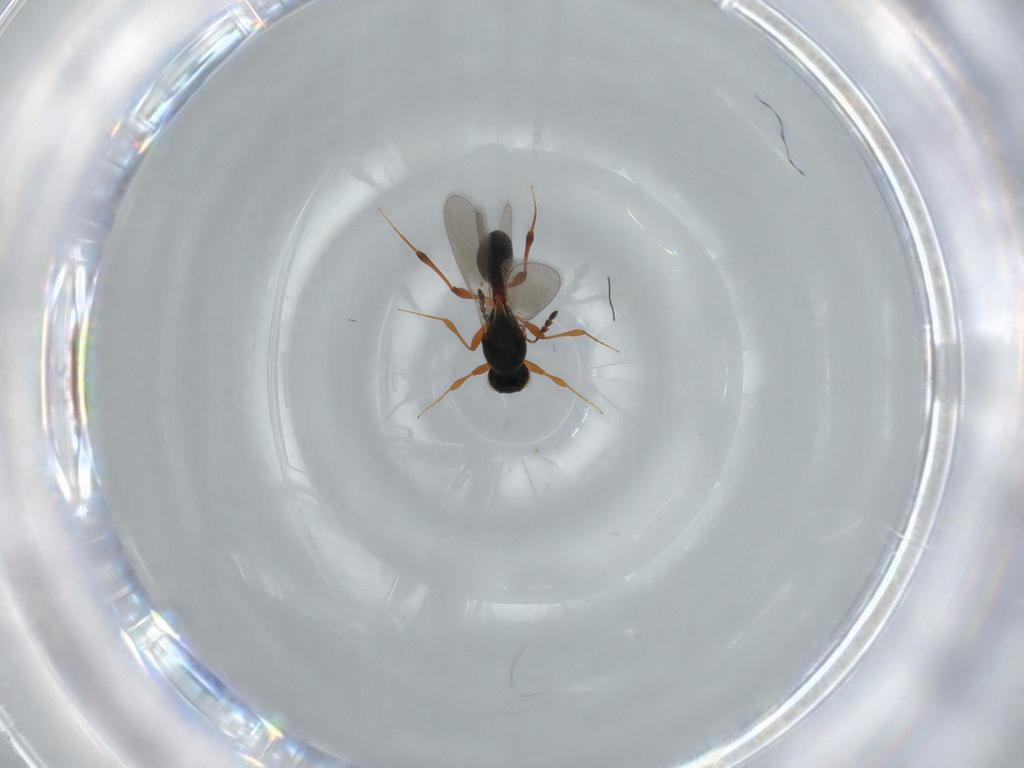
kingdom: Animalia
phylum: Arthropoda
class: Insecta
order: Hymenoptera
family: Platygastridae
